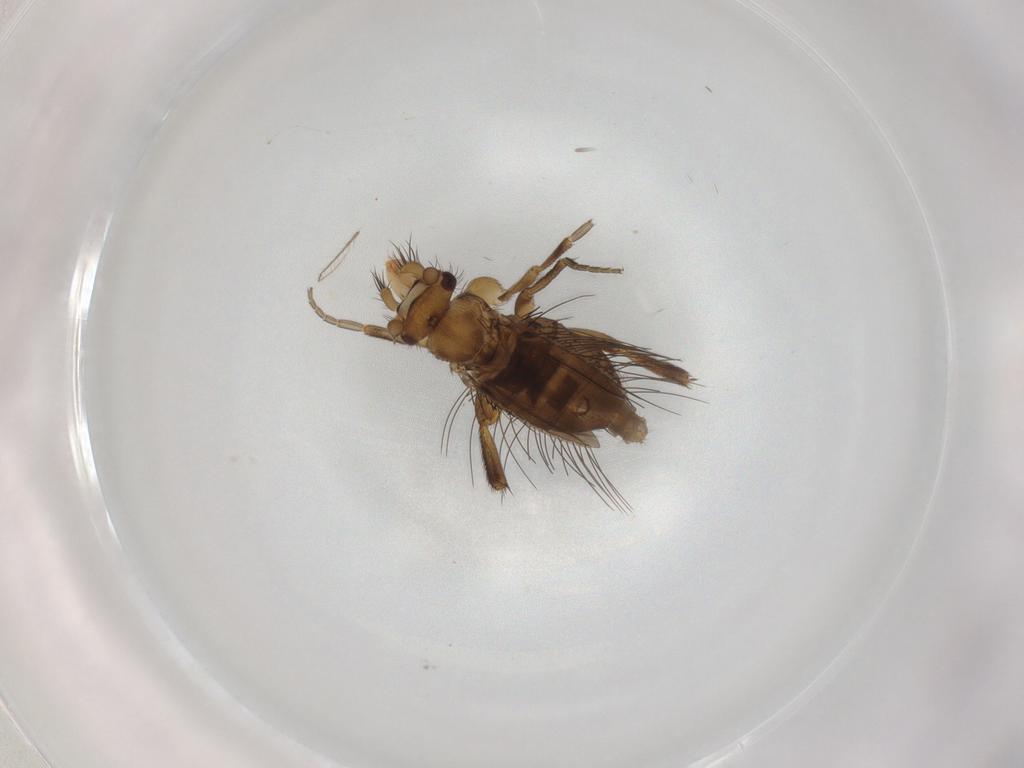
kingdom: Animalia
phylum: Arthropoda
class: Insecta
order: Diptera
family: Phoridae
